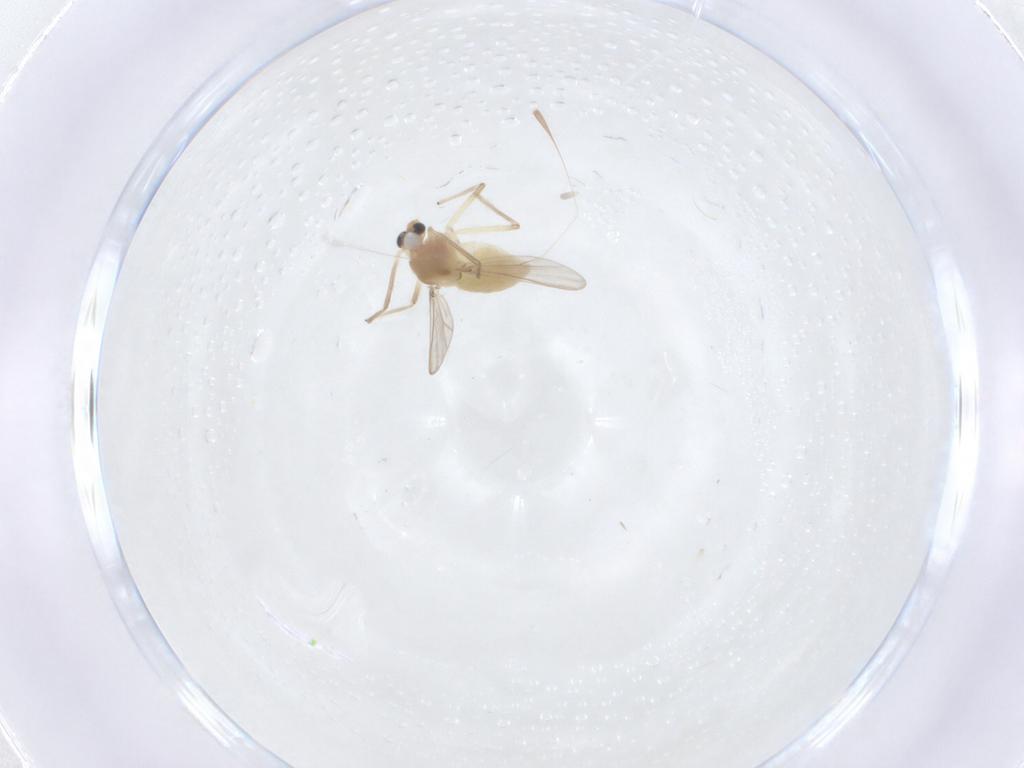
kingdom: Animalia
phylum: Arthropoda
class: Insecta
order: Diptera
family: Chironomidae
